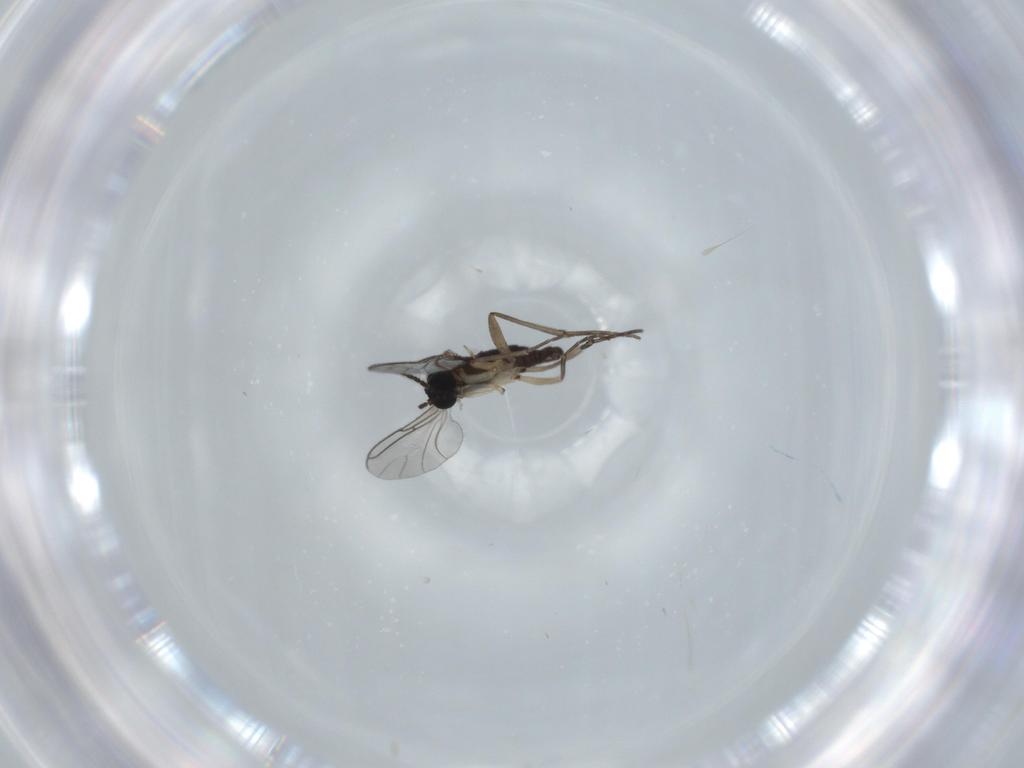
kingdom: Animalia
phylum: Arthropoda
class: Insecta
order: Diptera
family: Sciaridae
